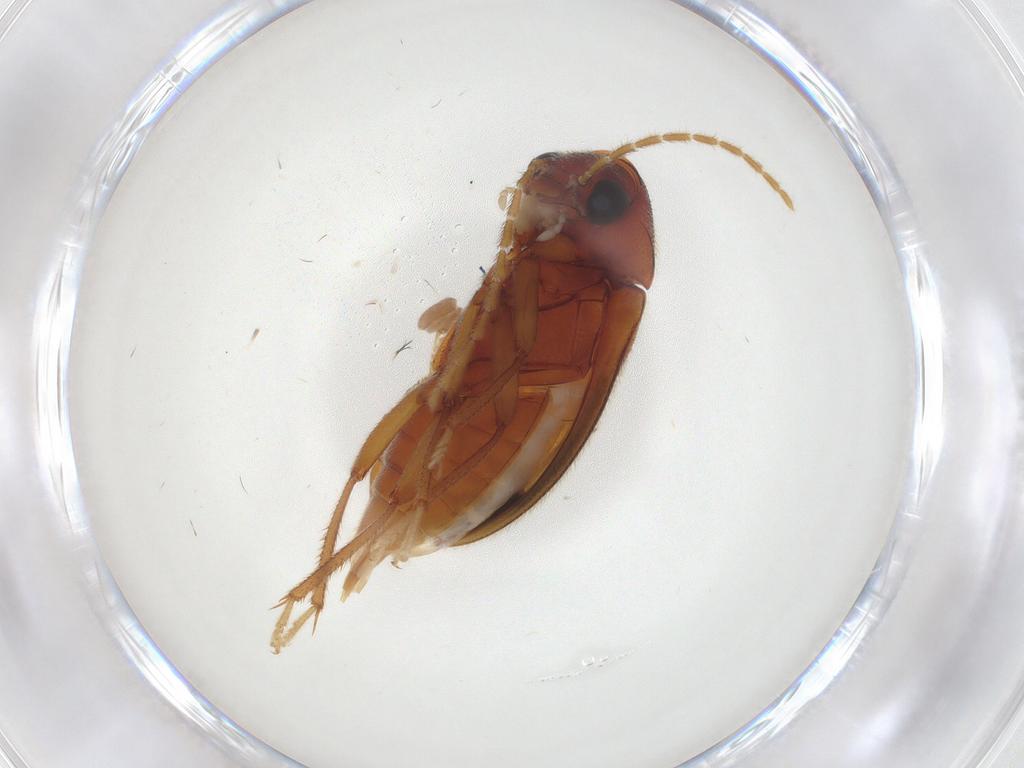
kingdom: Animalia
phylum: Arthropoda
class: Insecta
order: Coleoptera
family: Ptilodactylidae
